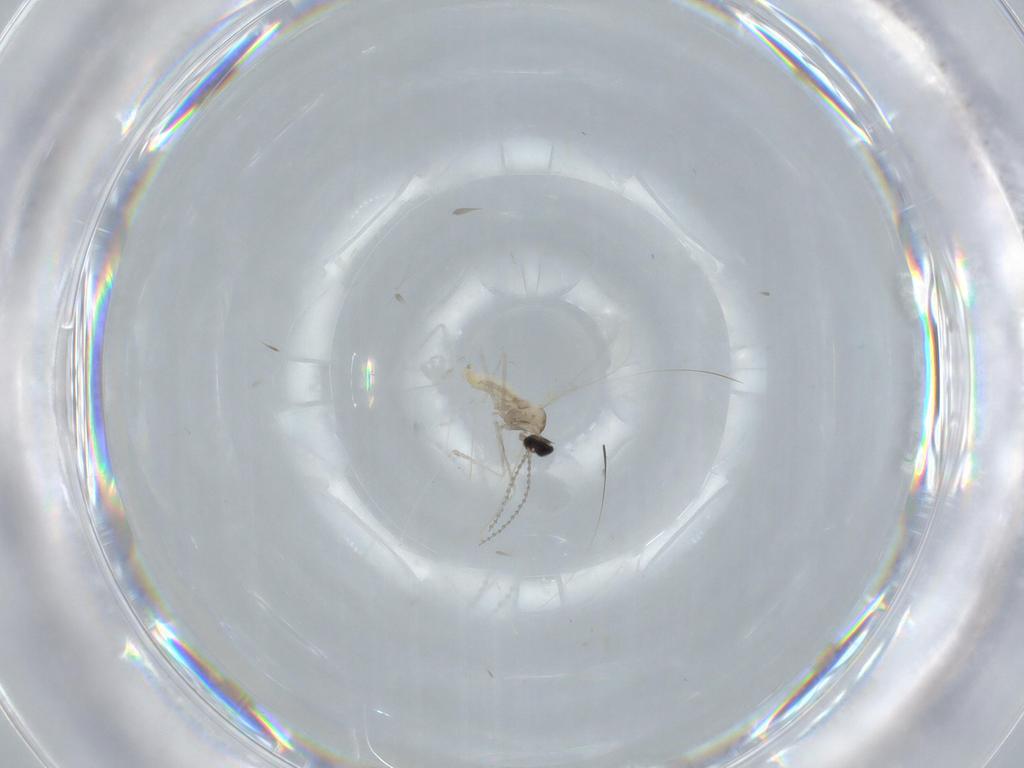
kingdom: Animalia
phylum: Arthropoda
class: Insecta
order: Diptera
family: Cecidomyiidae
